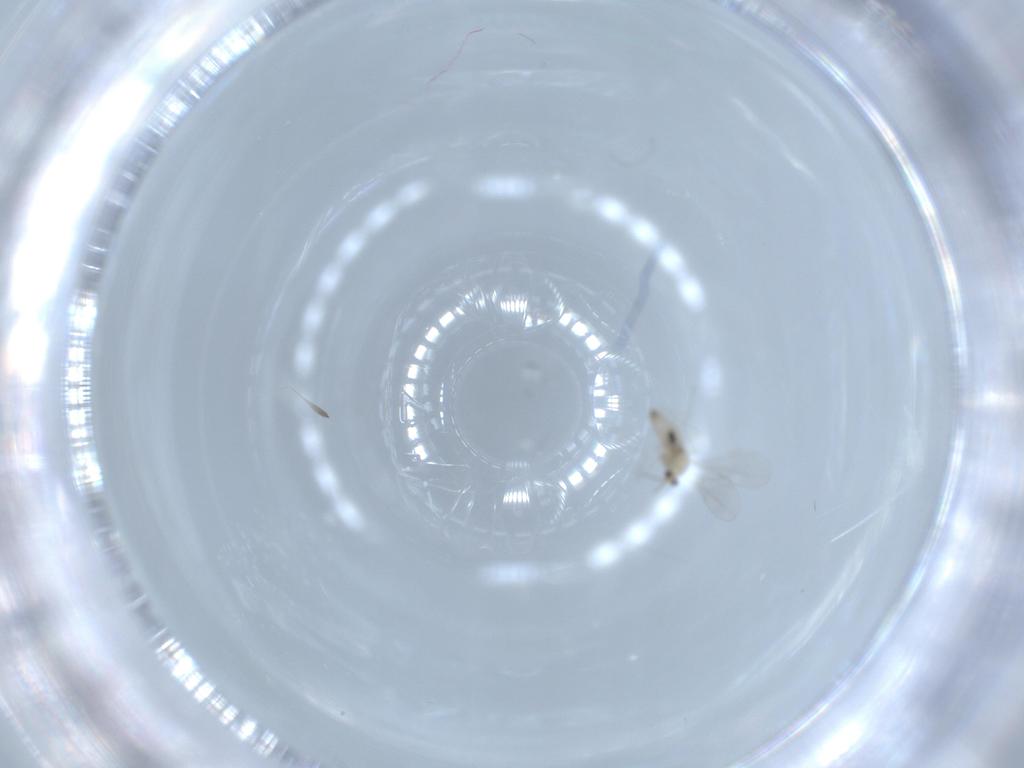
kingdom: Animalia
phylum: Arthropoda
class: Insecta
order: Diptera
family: Cecidomyiidae
